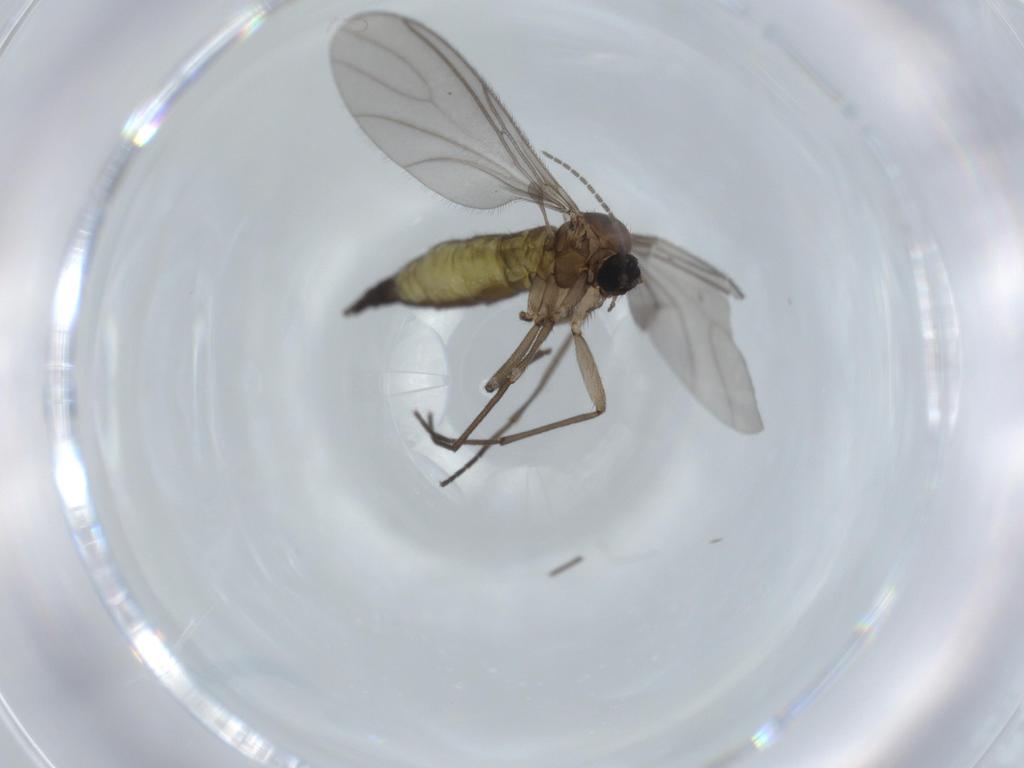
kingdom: Animalia
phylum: Arthropoda
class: Insecta
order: Diptera
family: Sciaridae
